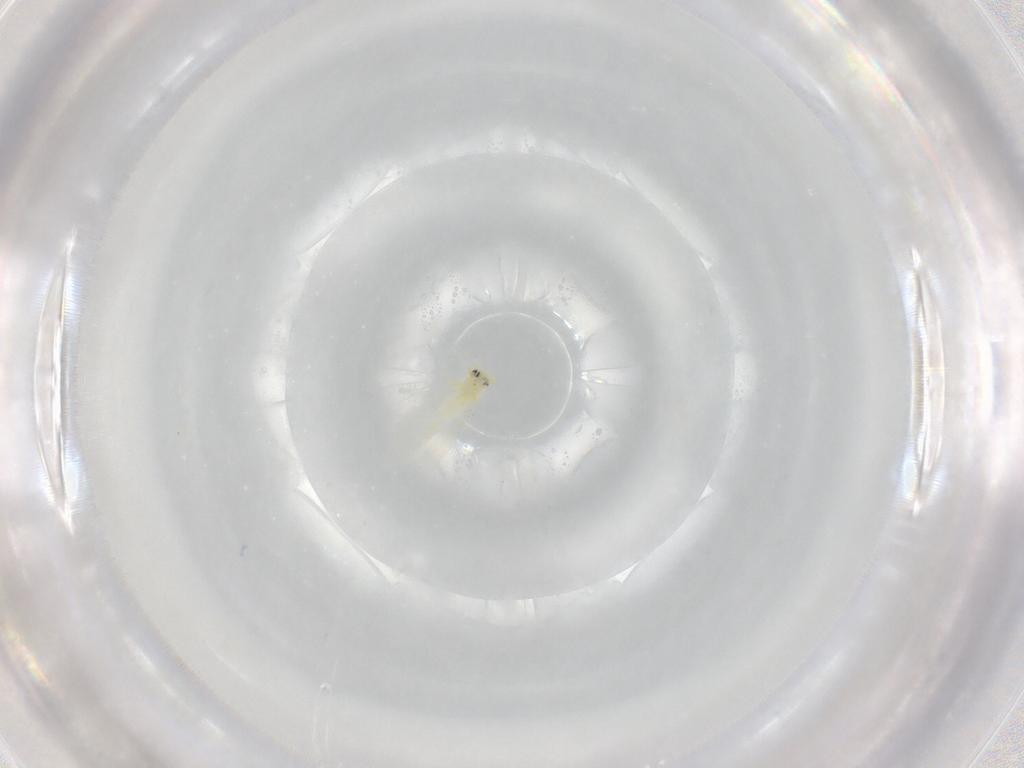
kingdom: Animalia
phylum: Arthropoda
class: Insecta
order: Hemiptera
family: Aleyrodidae
